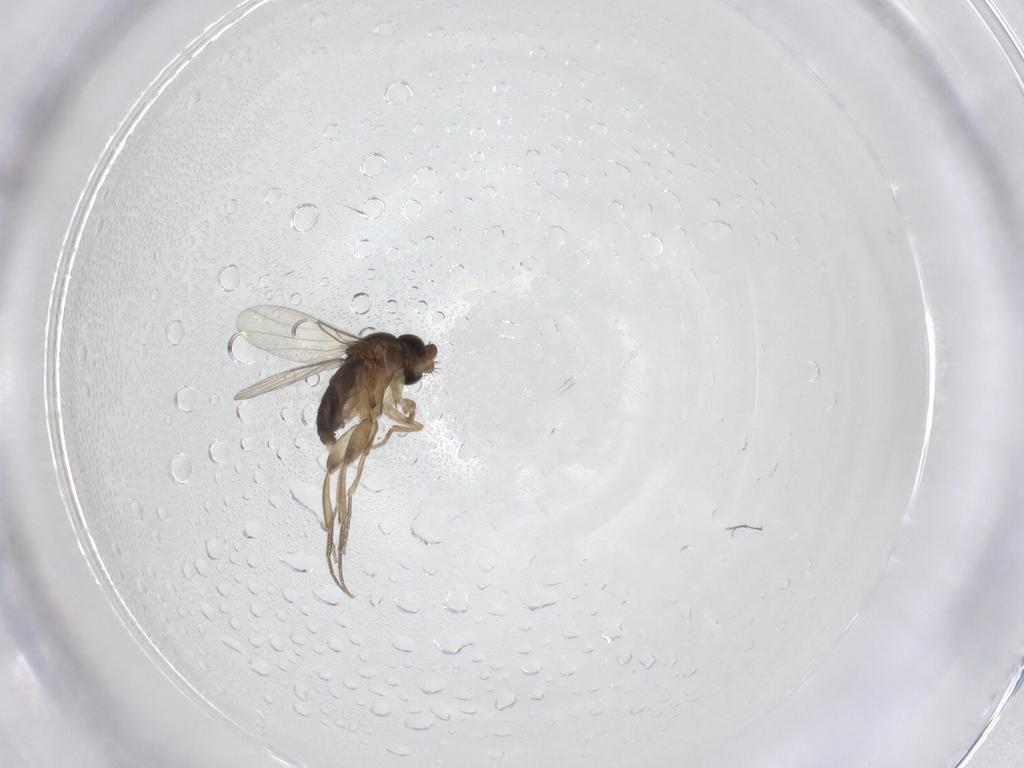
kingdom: Animalia
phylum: Arthropoda
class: Insecta
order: Diptera
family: Phoridae
